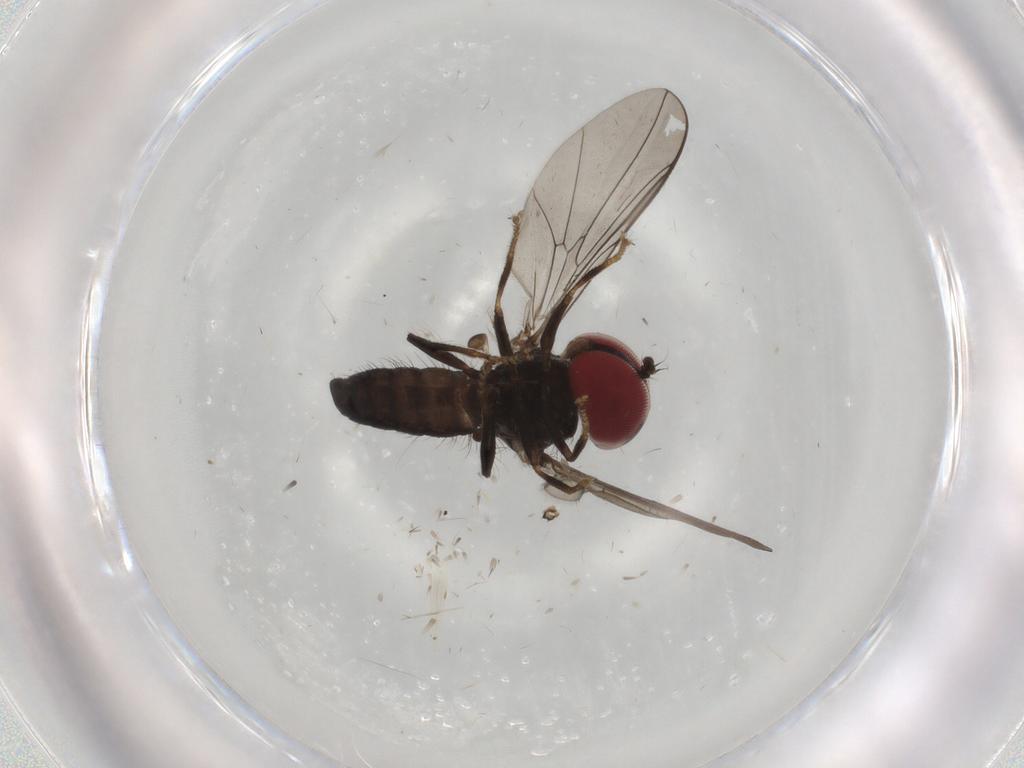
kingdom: Animalia
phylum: Arthropoda
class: Insecta
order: Diptera
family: Pipunculidae
